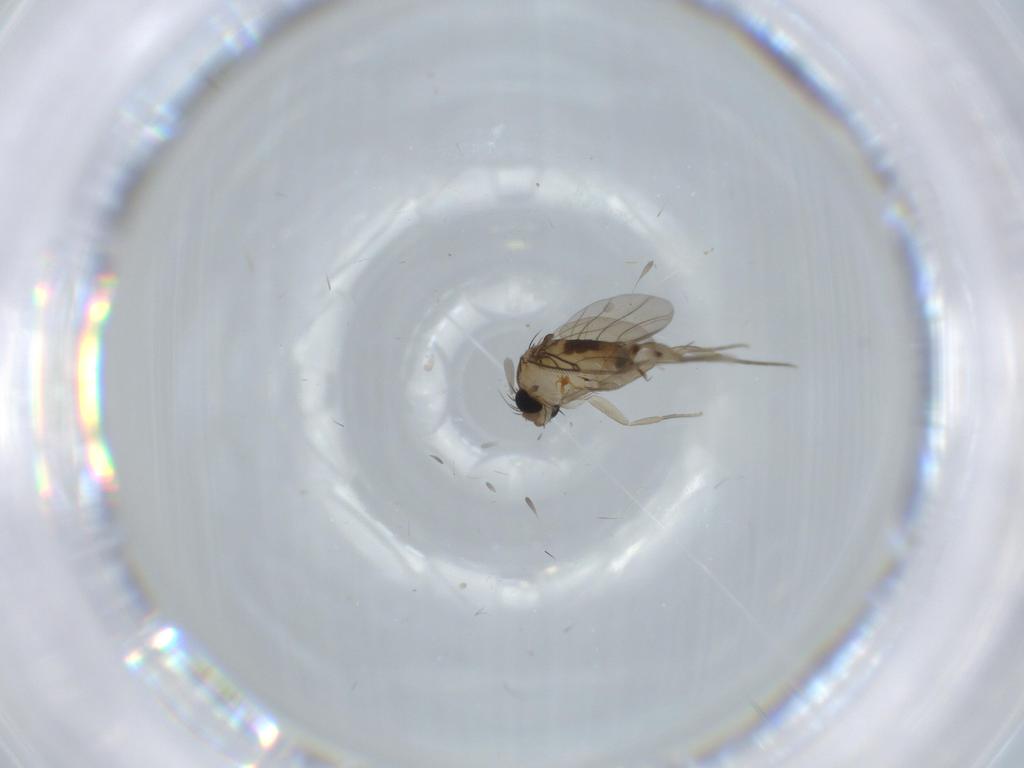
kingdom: Animalia
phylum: Arthropoda
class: Insecta
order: Diptera
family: Phoridae
